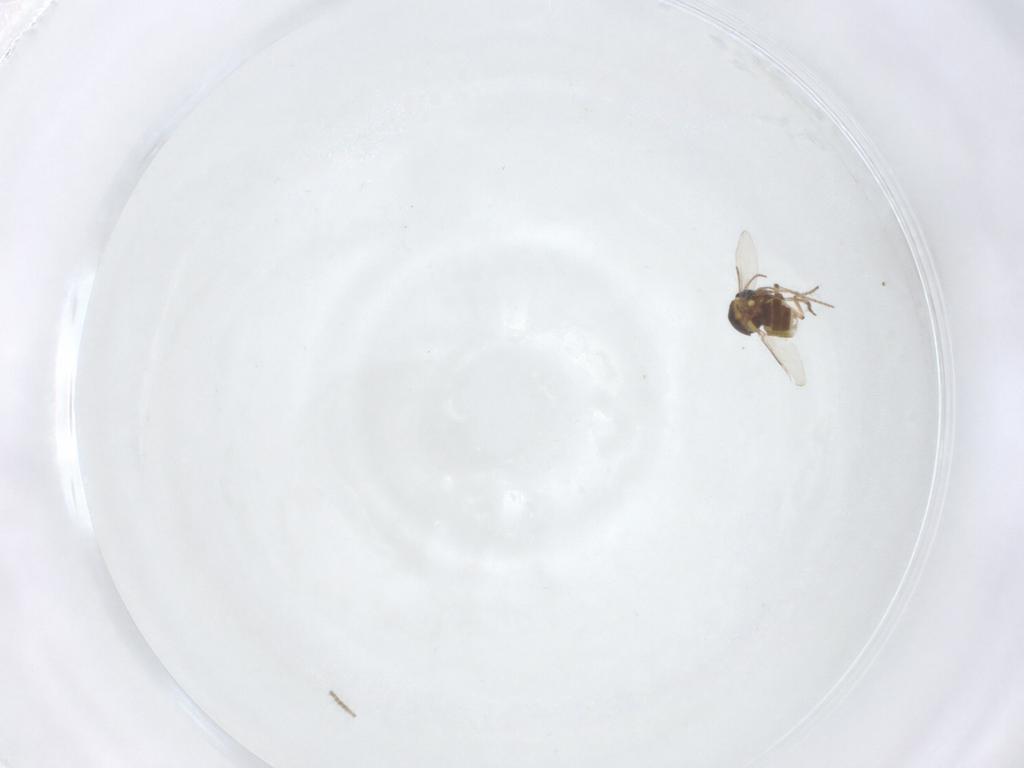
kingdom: Animalia
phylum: Arthropoda
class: Insecta
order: Diptera
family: Ceratopogonidae
